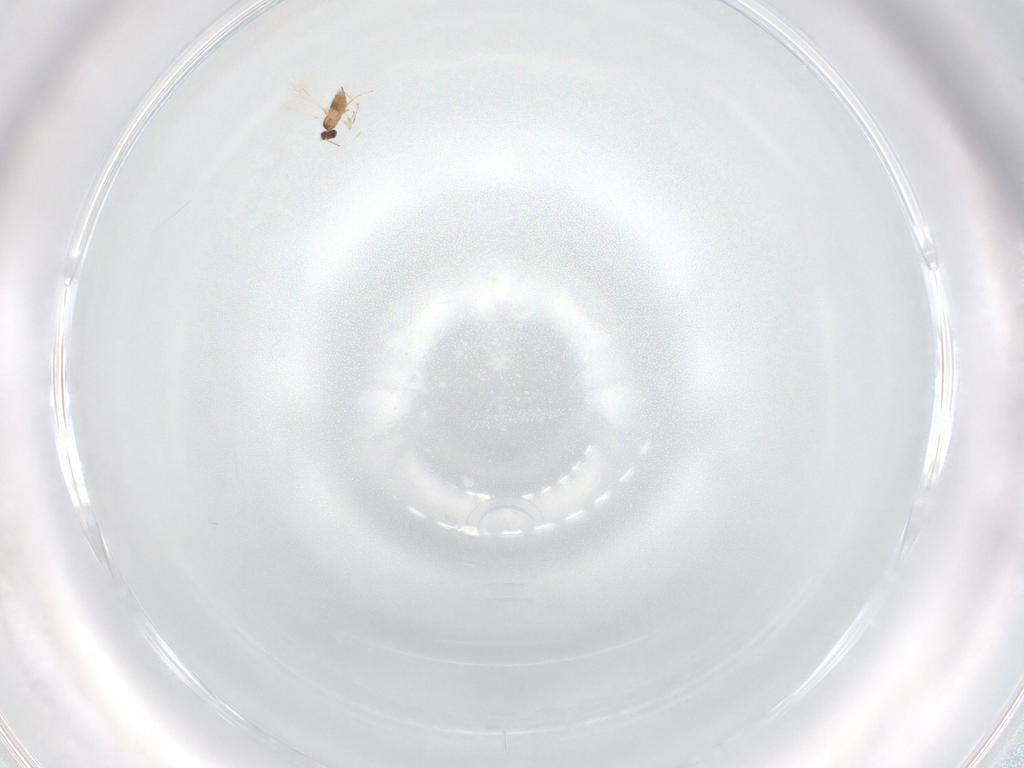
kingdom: Animalia
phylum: Arthropoda
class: Insecta
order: Hymenoptera
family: Mymaridae
